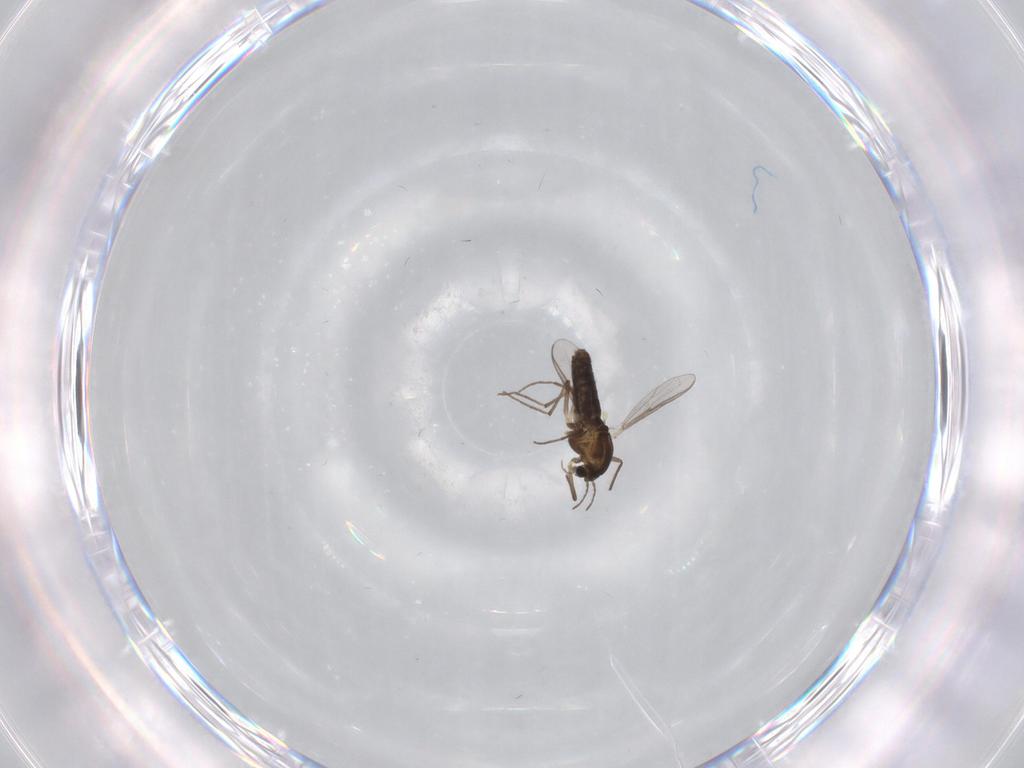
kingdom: Animalia
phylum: Arthropoda
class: Insecta
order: Diptera
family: Chironomidae
